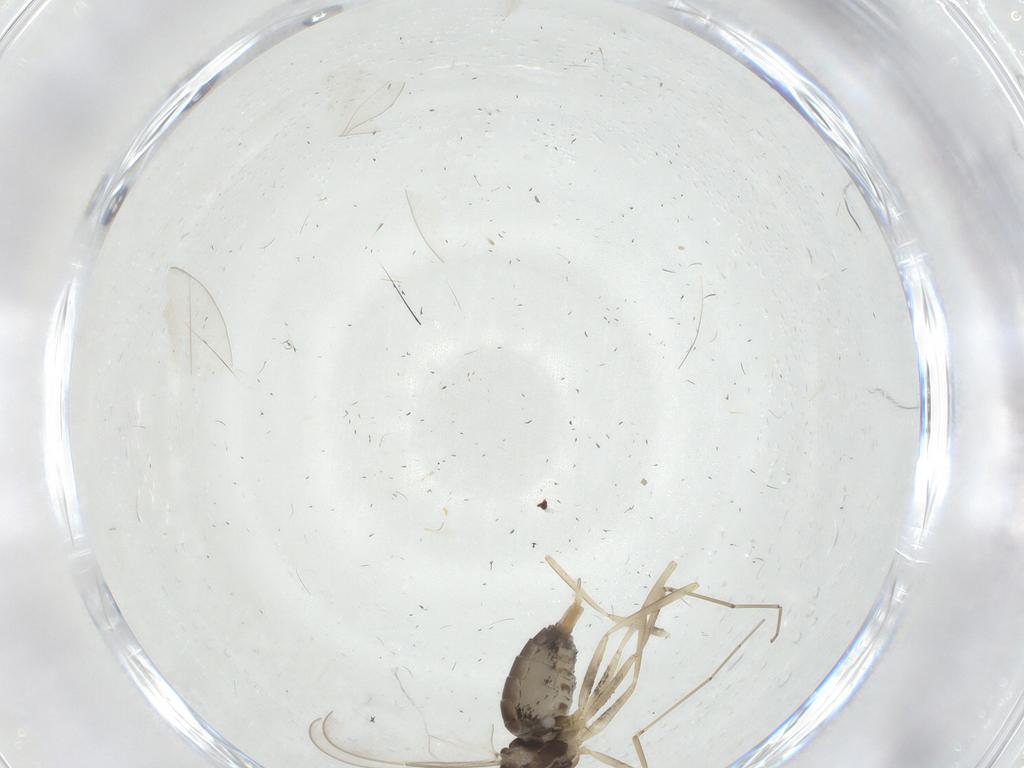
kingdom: Animalia
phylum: Arthropoda
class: Insecta
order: Diptera
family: Cecidomyiidae
